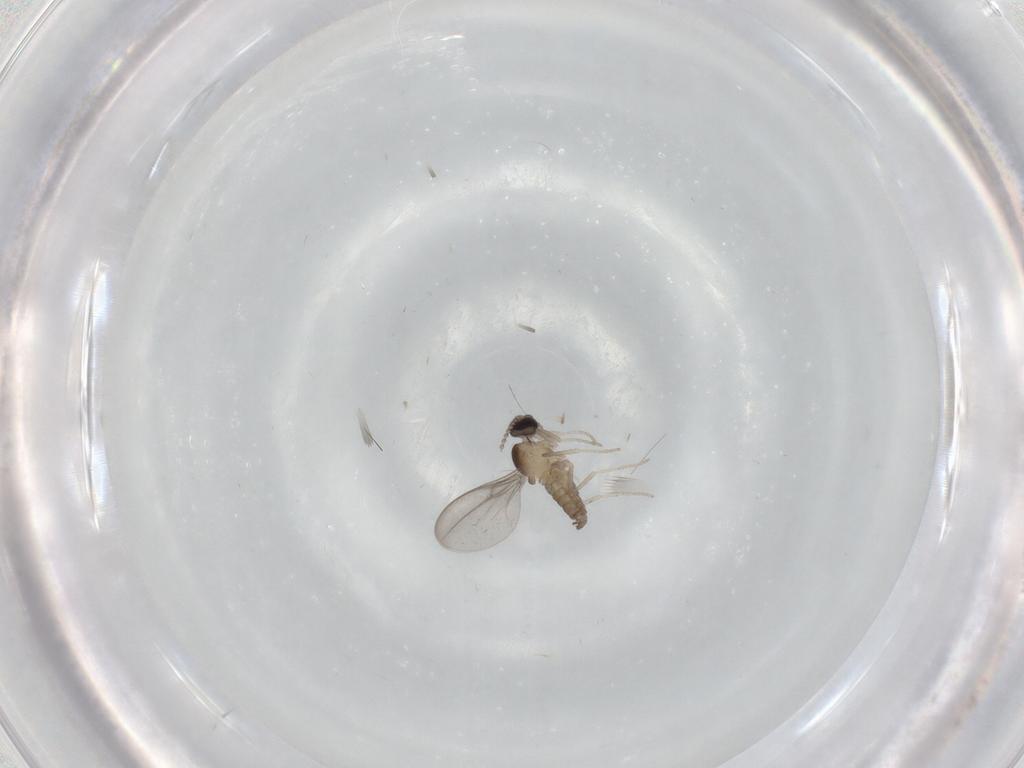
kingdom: Animalia
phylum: Arthropoda
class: Insecta
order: Diptera
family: Cecidomyiidae
